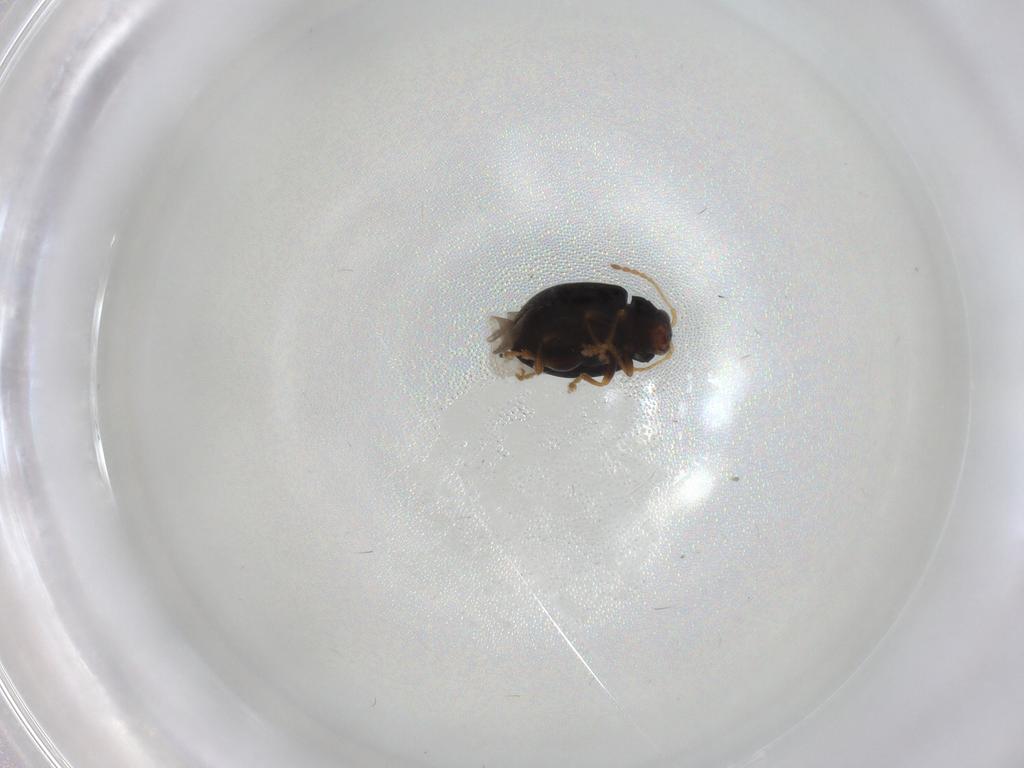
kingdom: Animalia
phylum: Arthropoda
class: Insecta
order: Coleoptera
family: Chrysomelidae
